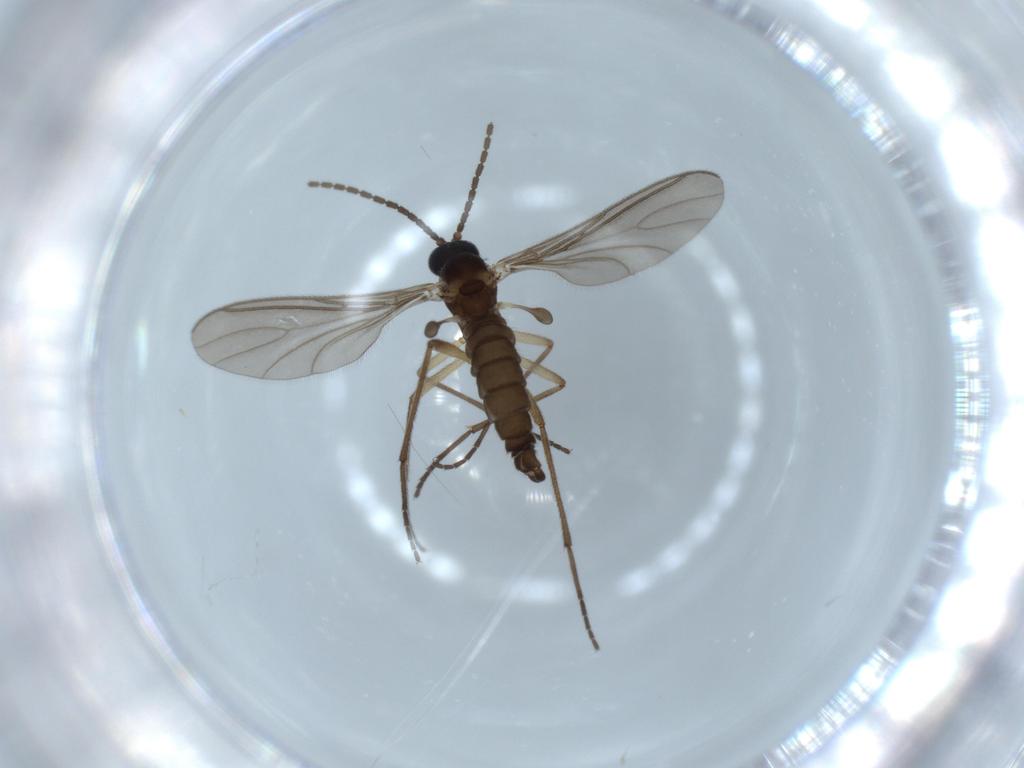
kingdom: Animalia
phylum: Arthropoda
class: Insecta
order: Diptera
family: Sciaridae
